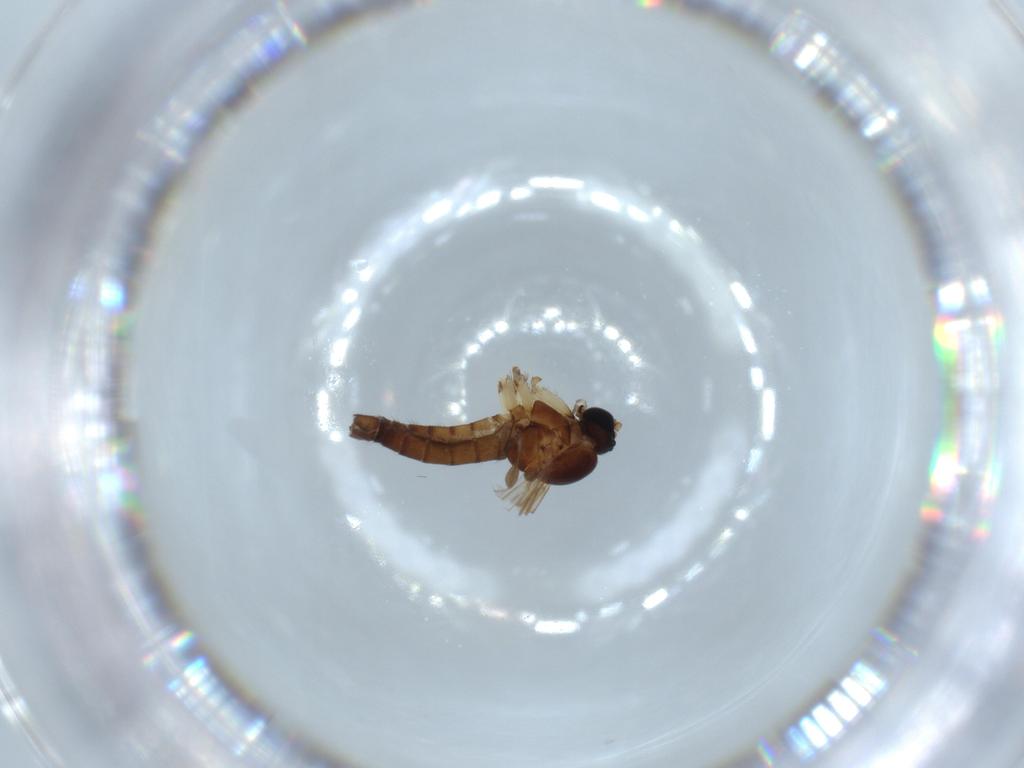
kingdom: Animalia
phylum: Arthropoda
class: Insecta
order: Diptera
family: Sciaridae
